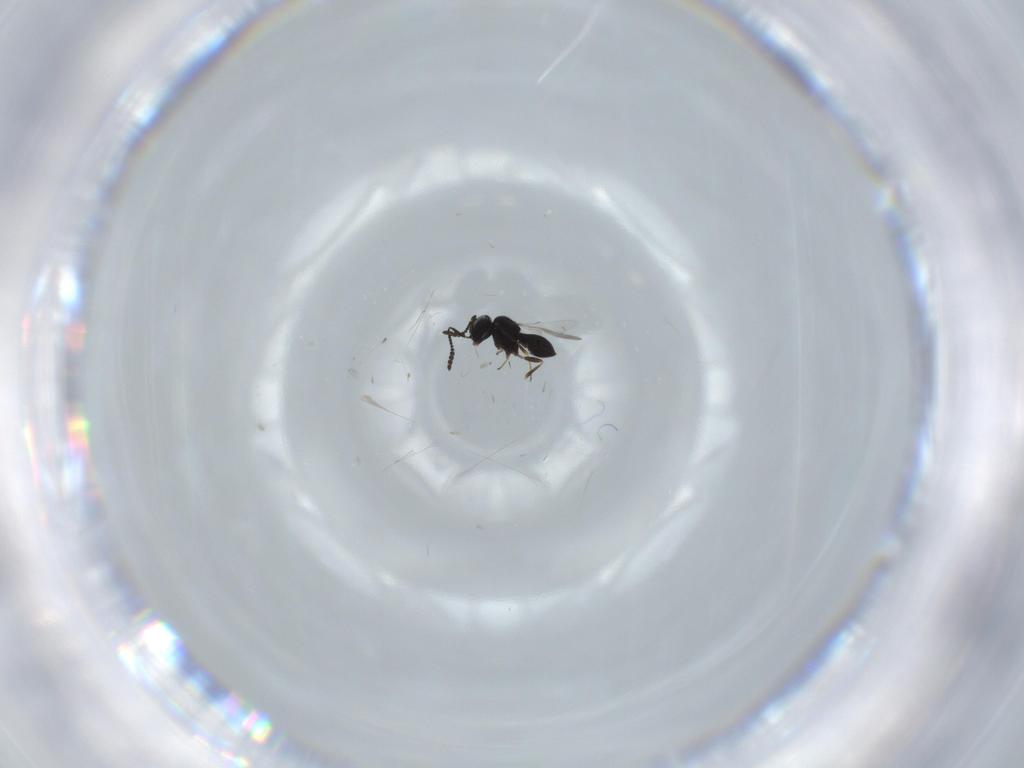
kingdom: Animalia
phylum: Arthropoda
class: Insecta
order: Hymenoptera
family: Scelionidae
